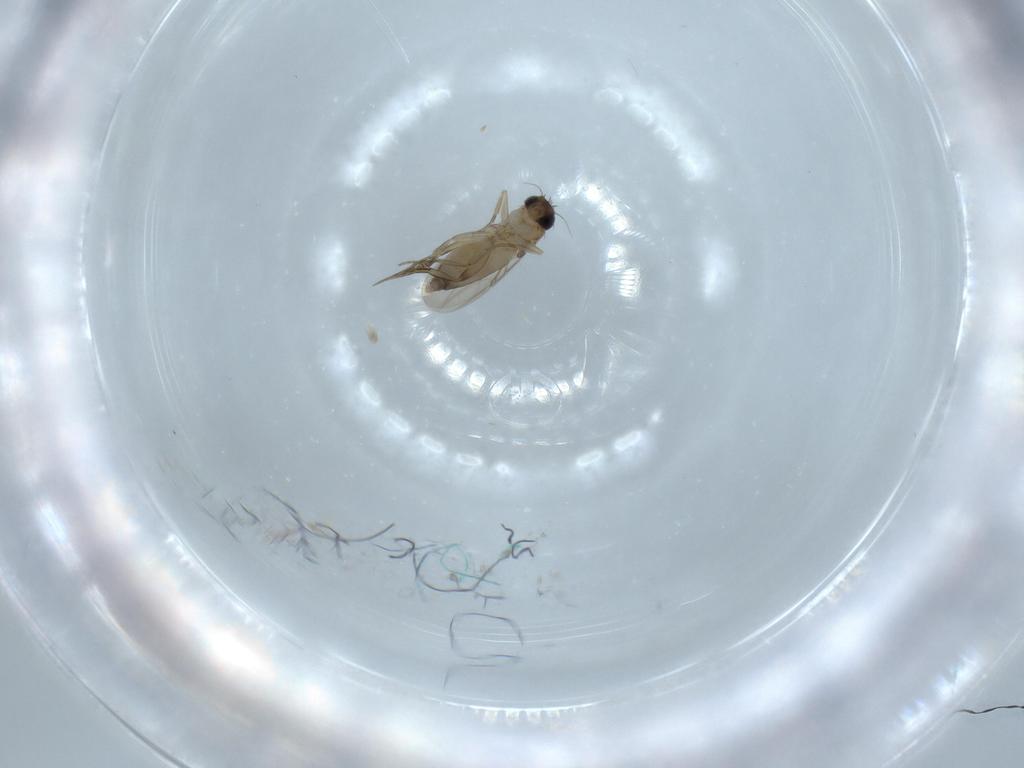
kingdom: Animalia
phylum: Arthropoda
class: Insecta
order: Diptera
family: Phoridae
